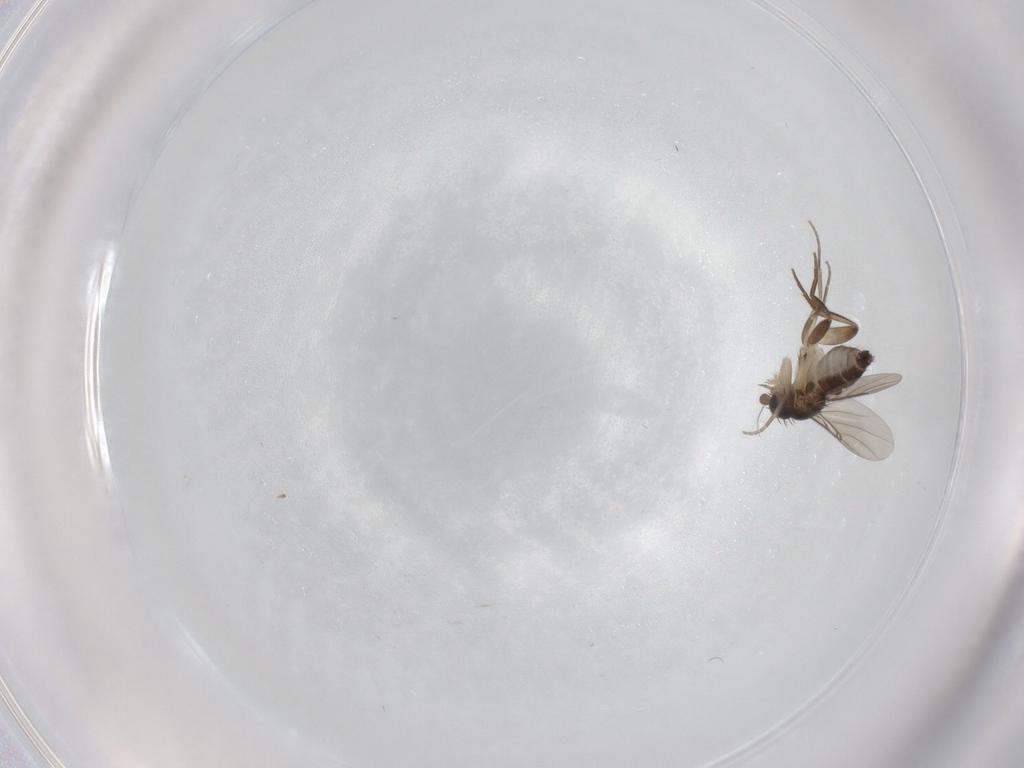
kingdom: Animalia
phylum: Arthropoda
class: Insecta
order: Diptera
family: Phoridae
